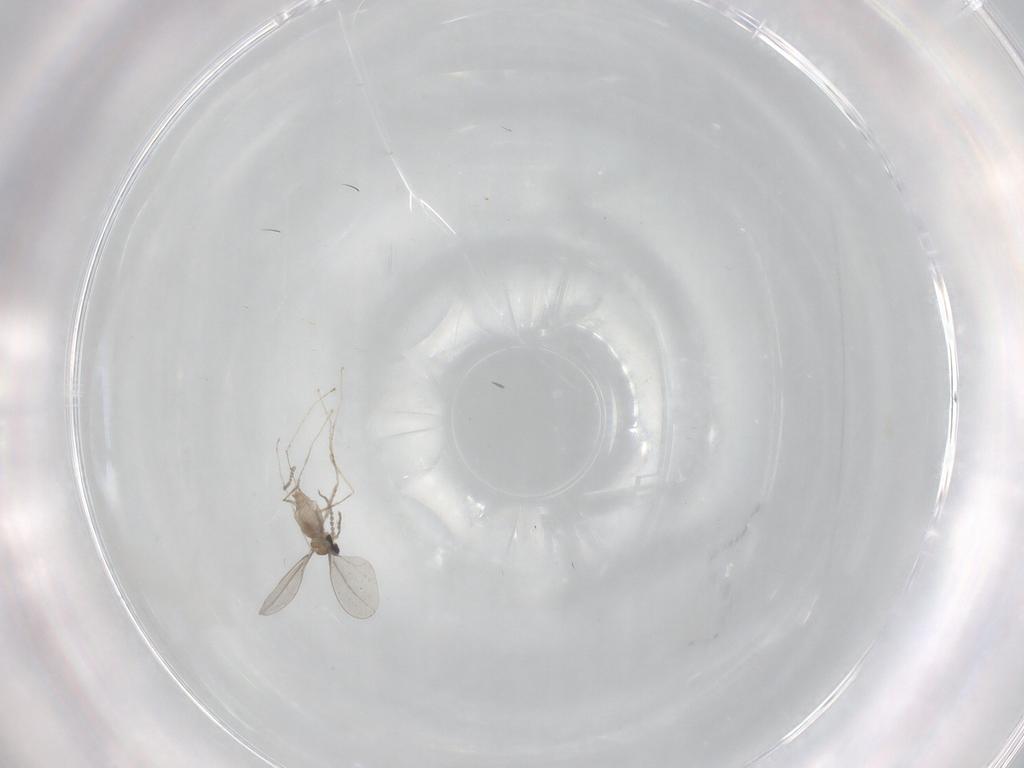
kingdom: Animalia
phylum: Arthropoda
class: Insecta
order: Diptera
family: Cecidomyiidae
